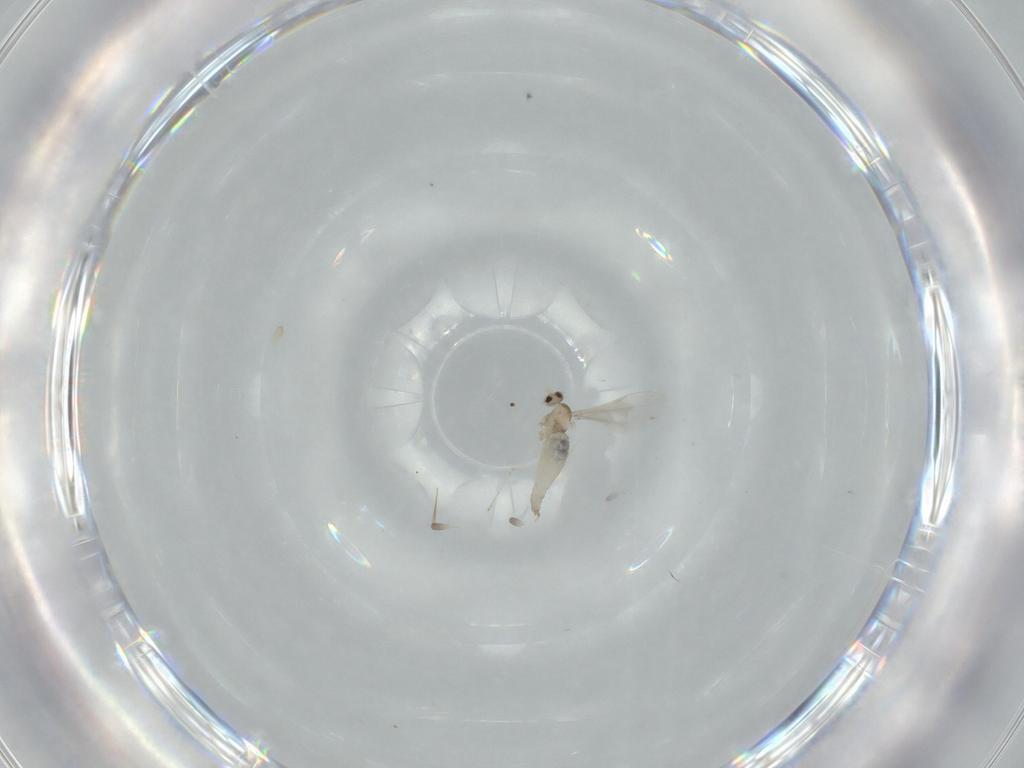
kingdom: Animalia
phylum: Arthropoda
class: Insecta
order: Diptera
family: Cecidomyiidae
